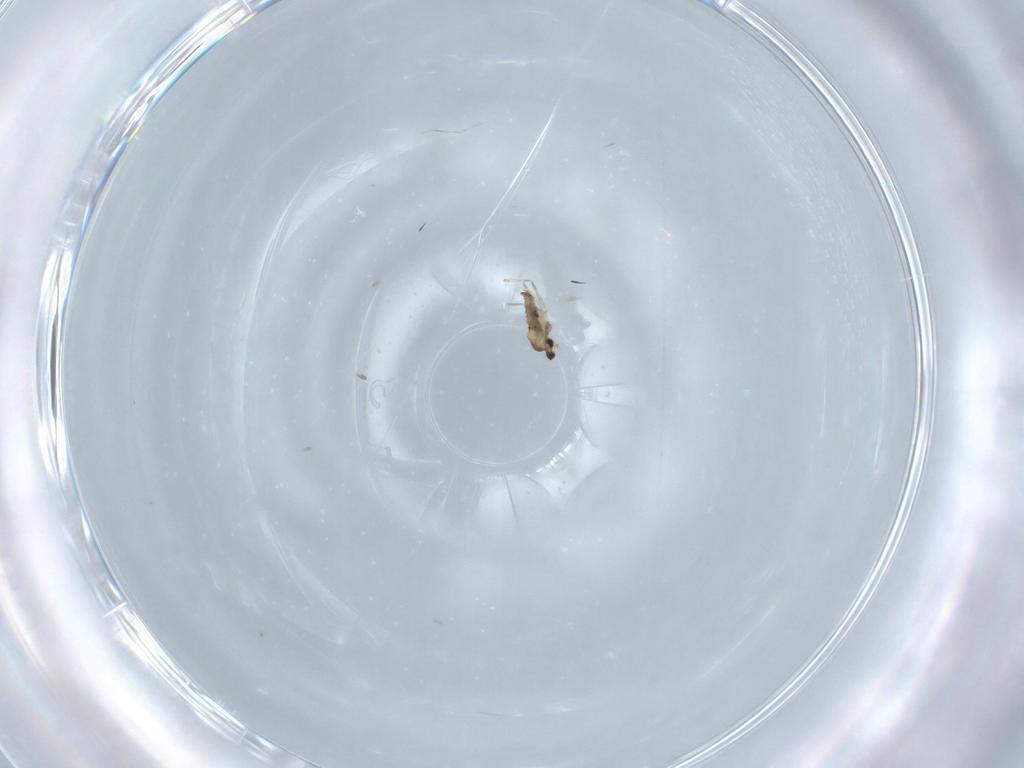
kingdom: Animalia
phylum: Arthropoda
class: Insecta
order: Diptera
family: Cecidomyiidae
